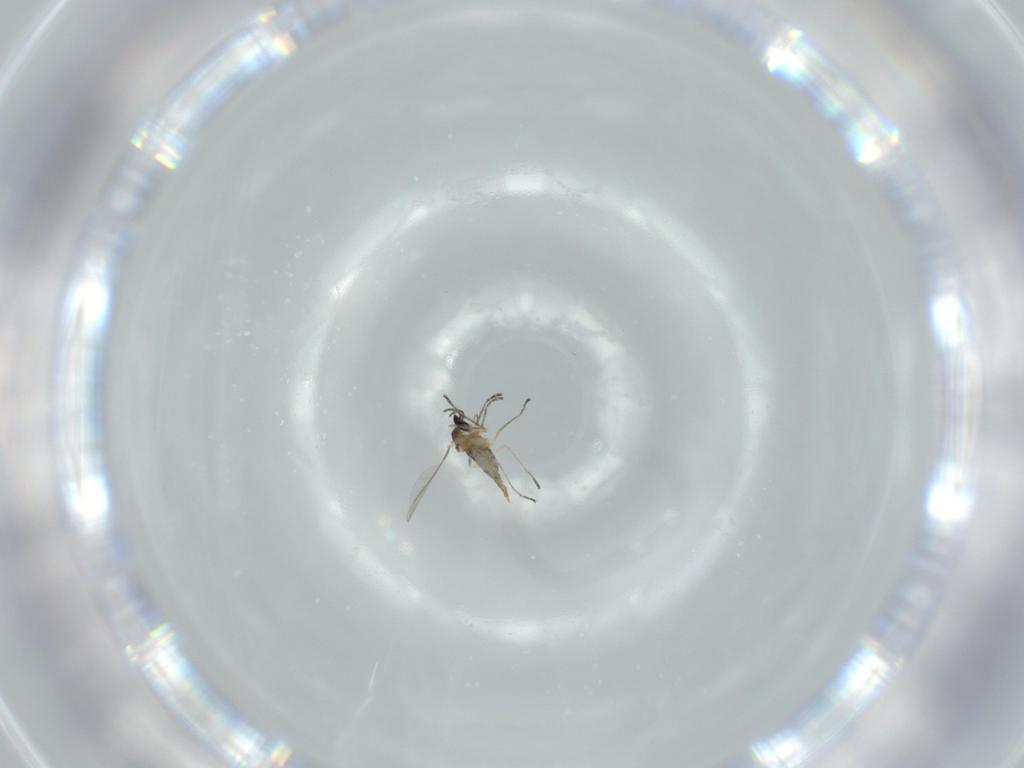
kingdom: Animalia
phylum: Arthropoda
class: Insecta
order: Diptera
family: Cecidomyiidae
